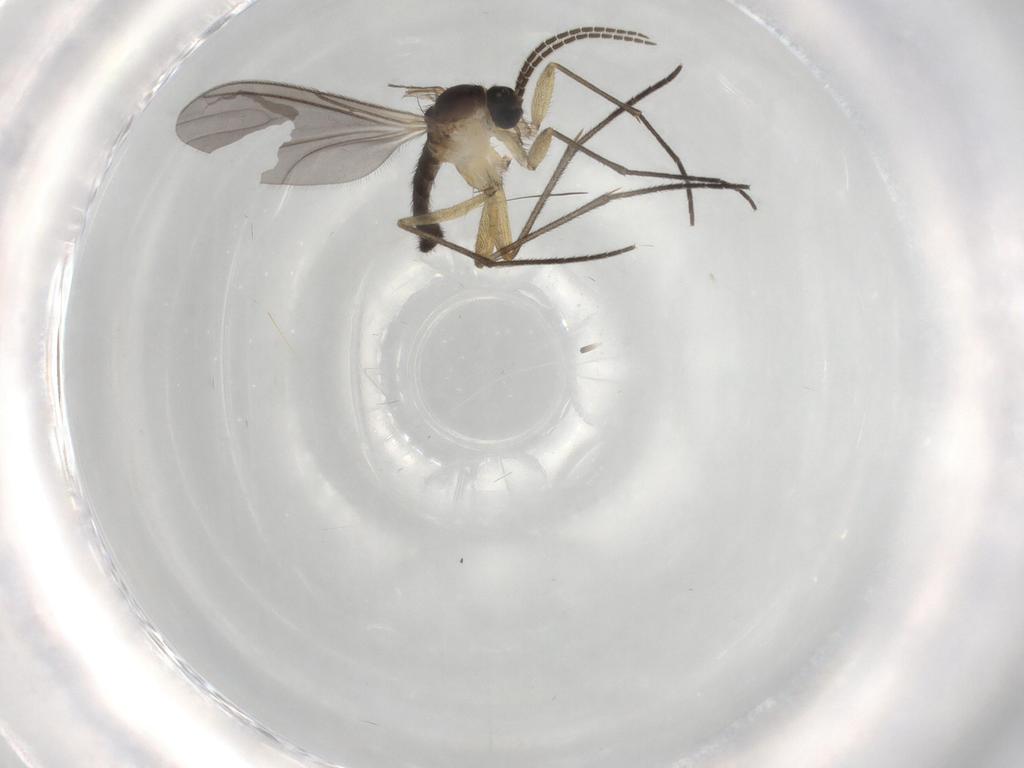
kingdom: Animalia
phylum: Arthropoda
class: Insecta
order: Diptera
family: Sciaridae
